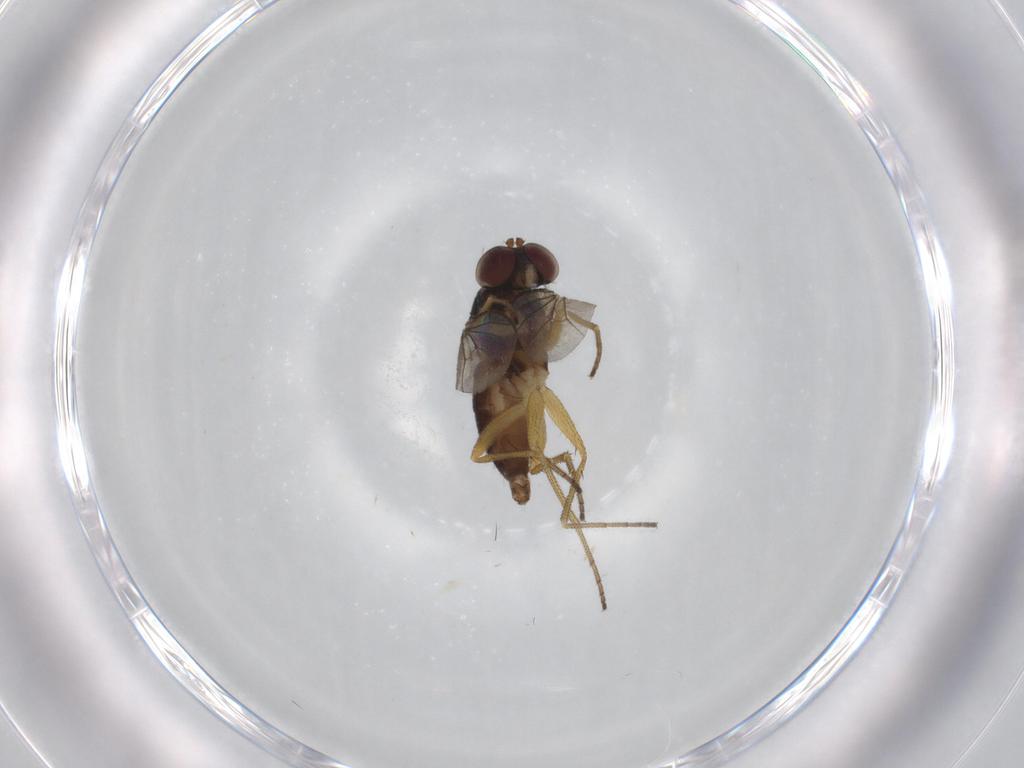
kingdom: Animalia
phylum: Arthropoda
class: Insecta
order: Diptera
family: Dolichopodidae
